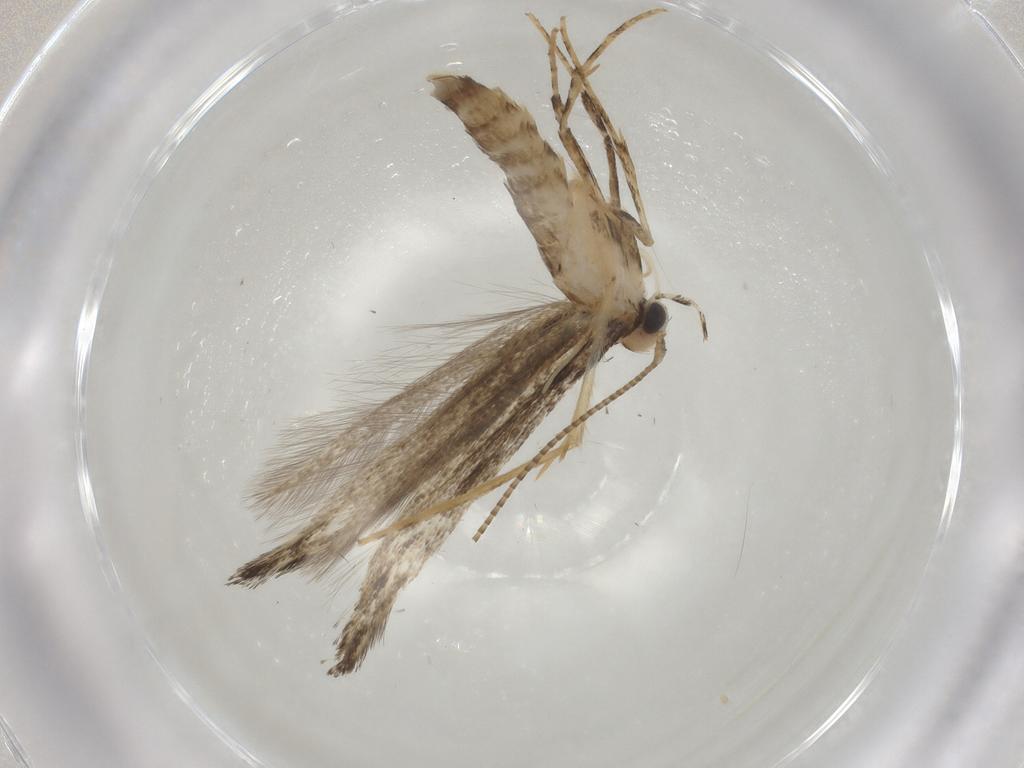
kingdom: Animalia
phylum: Arthropoda
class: Insecta
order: Lepidoptera
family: Gracillariidae
